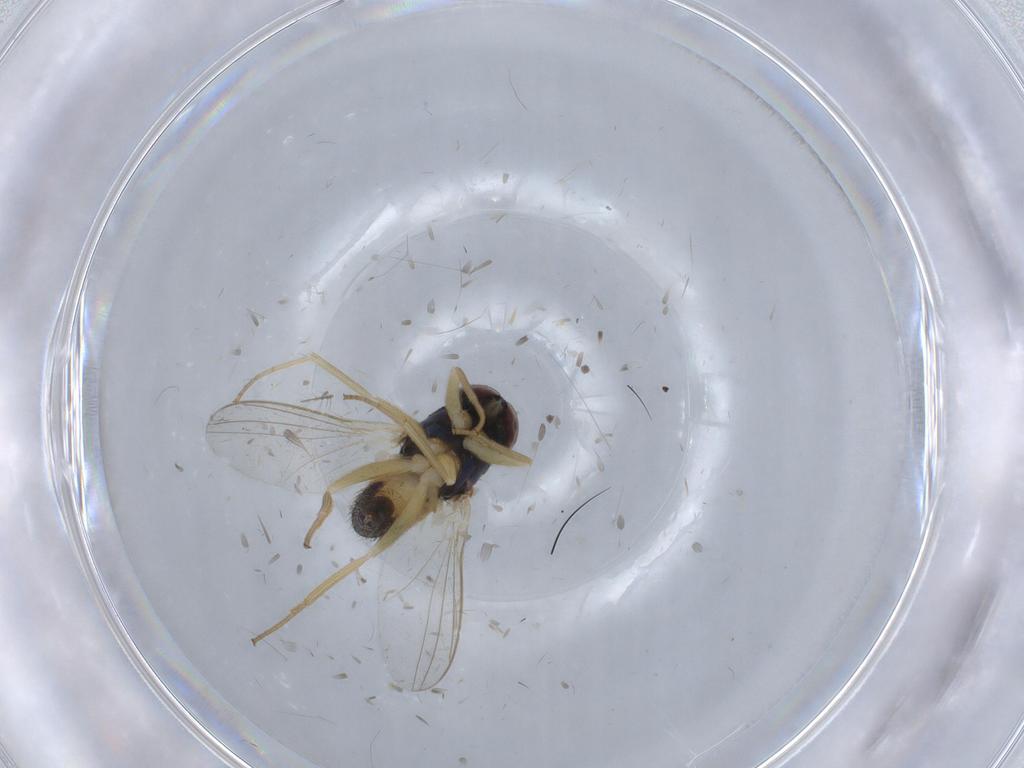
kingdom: Animalia
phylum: Arthropoda
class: Insecta
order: Diptera
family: Dolichopodidae
